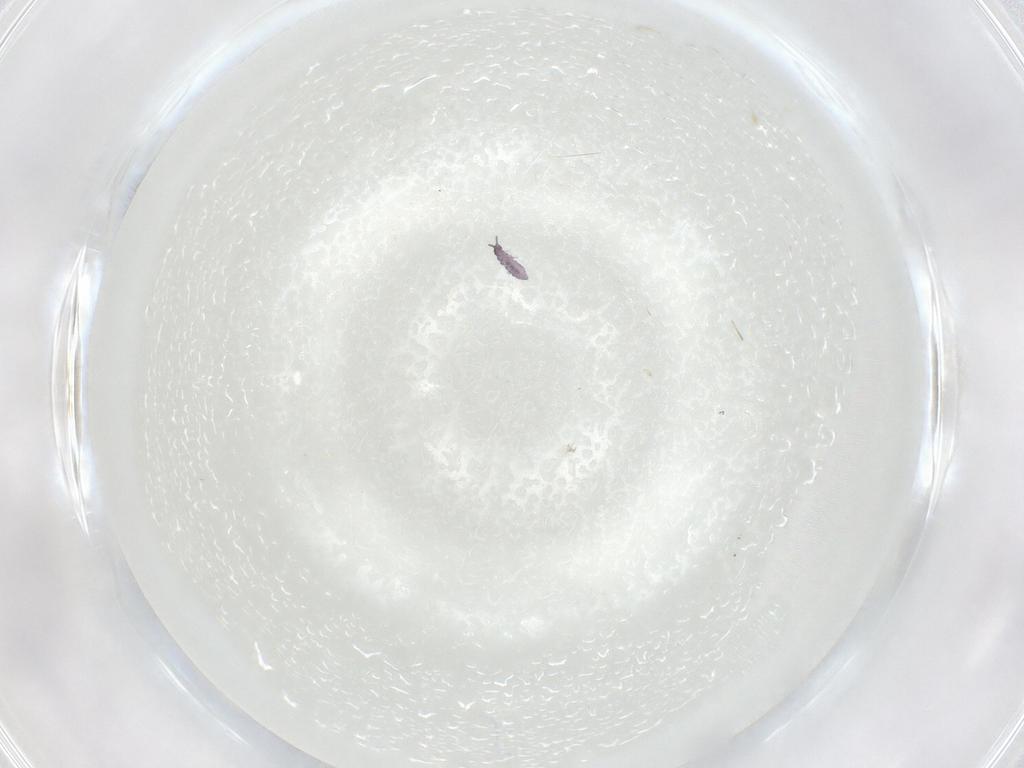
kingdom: Animalia
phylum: Arthropoda
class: Collembola
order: Poduromorpha
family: Neanuridae
